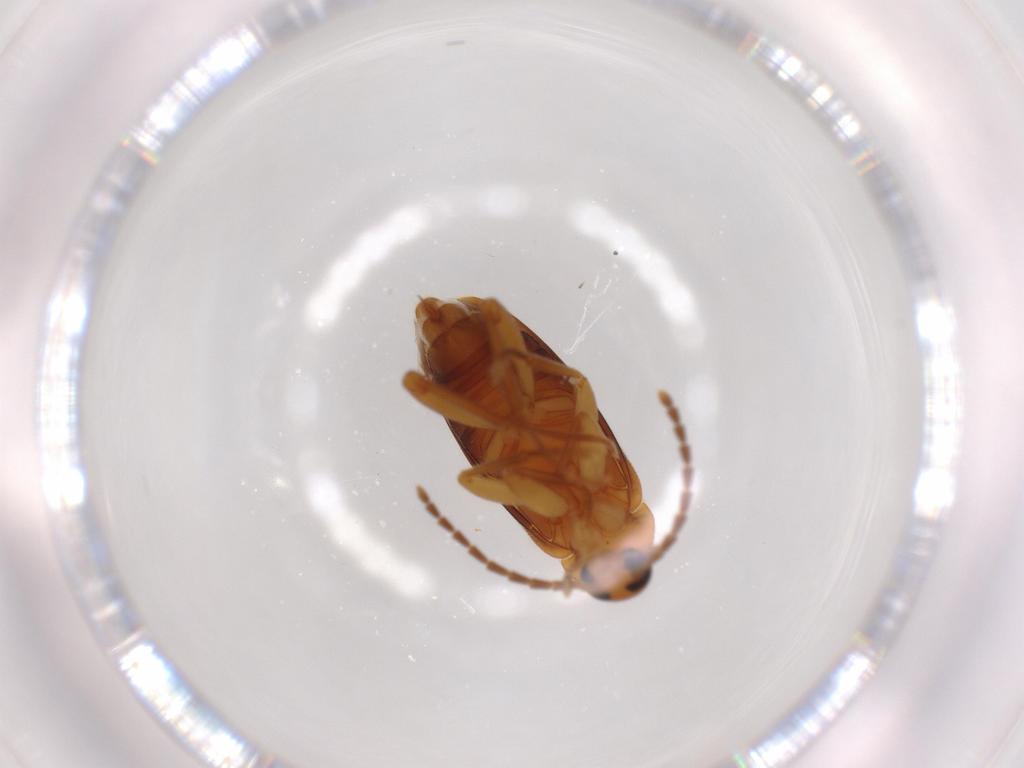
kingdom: Animalia
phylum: Arthropoda
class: Insecta
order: Coleoptera
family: Scraptiidae
